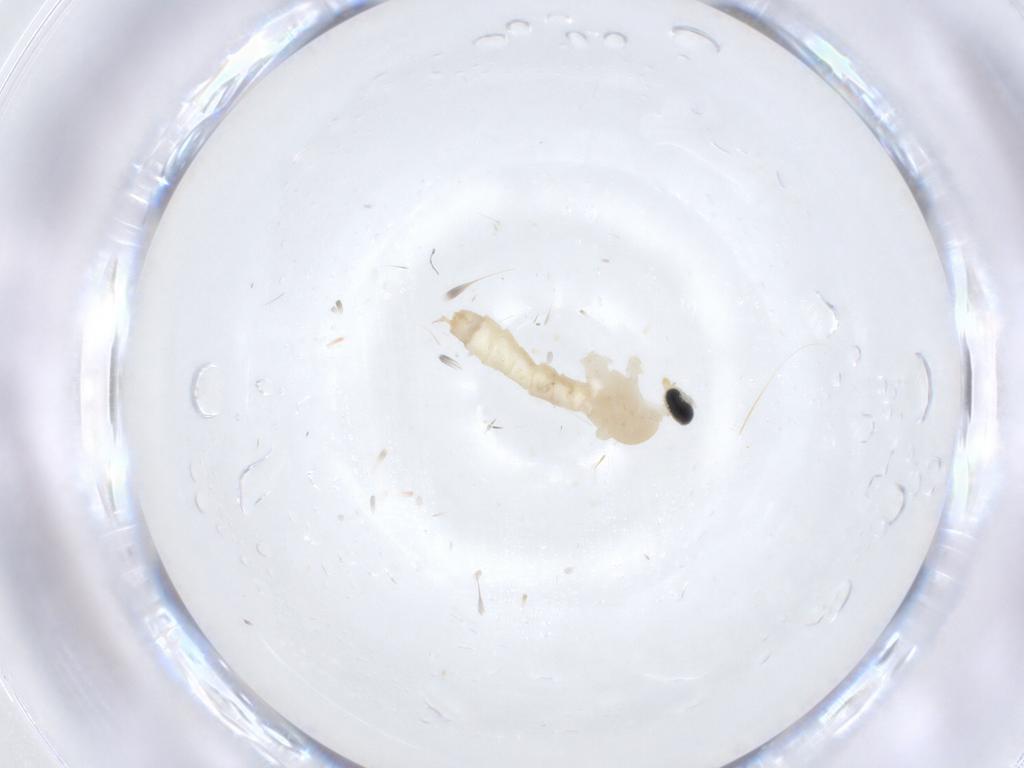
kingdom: Animalia
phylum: Arthropoda
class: Insecta
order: Diptera
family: Cecidomyiidae
